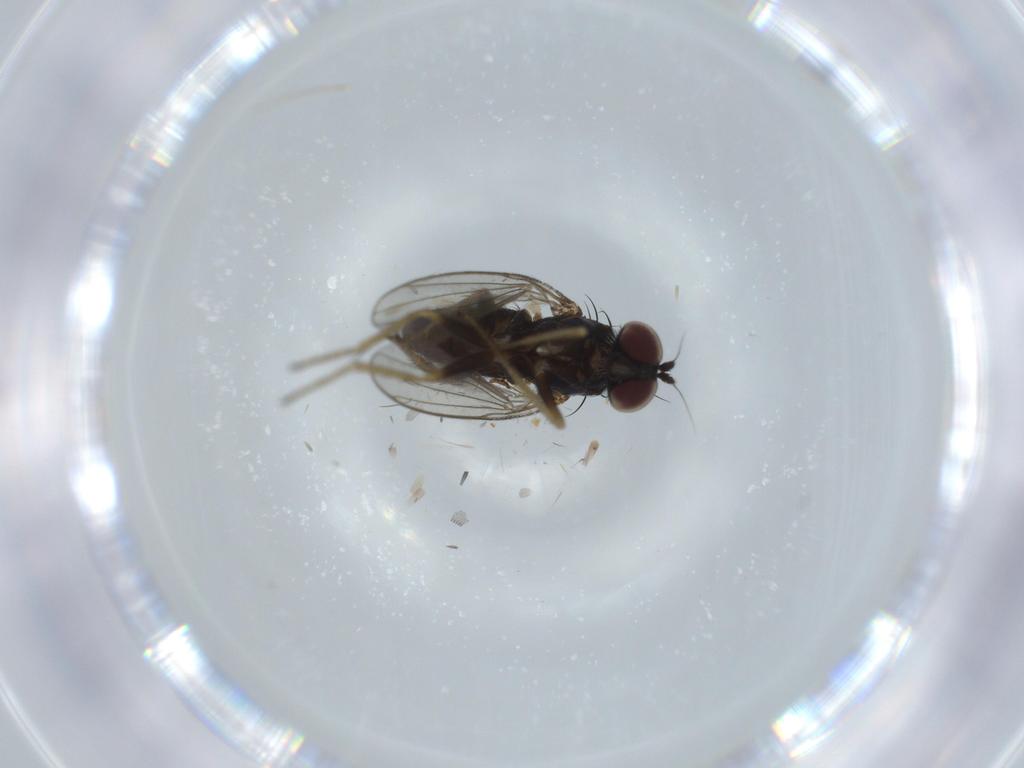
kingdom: Animalia
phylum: Arthropoda
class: Insecta
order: Diptera
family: Dolichopodidae
